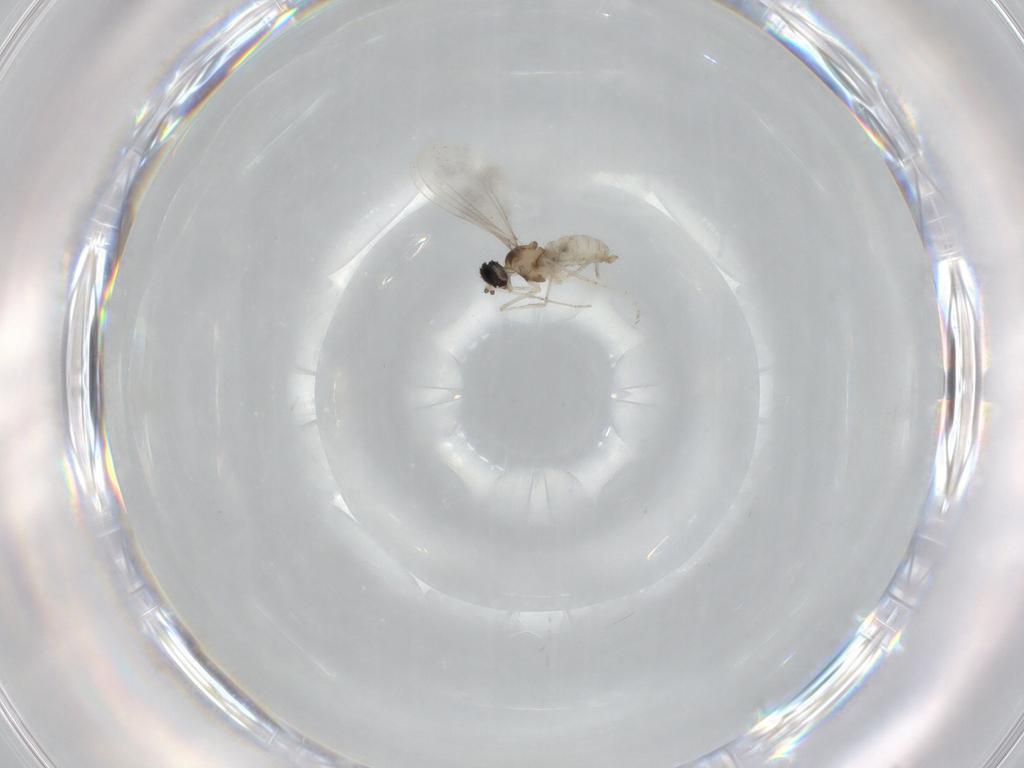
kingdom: Animalia
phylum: Arthropoda
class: Insecta
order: Diptera
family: Cecidomyiidae
